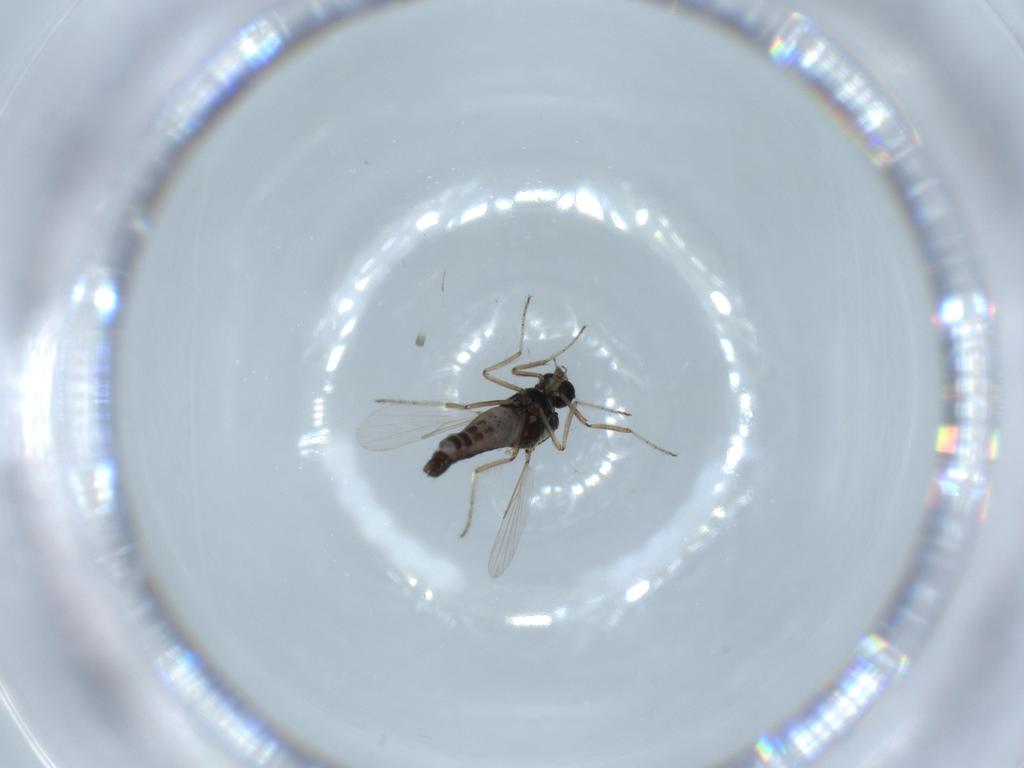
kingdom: Animalia
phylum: Arthropoda
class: Insecta
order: Diptera
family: Ceratopogonidae
